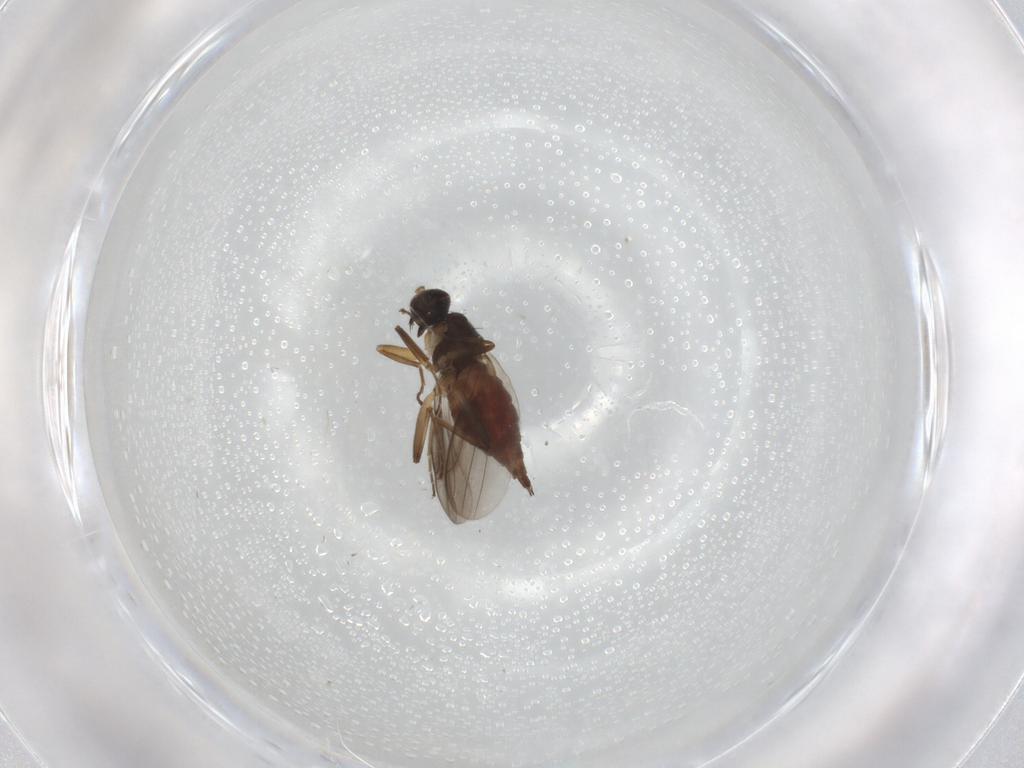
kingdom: Animalia
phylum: Arthropoda
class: Insecta
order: Diptera
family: Hybotidae
